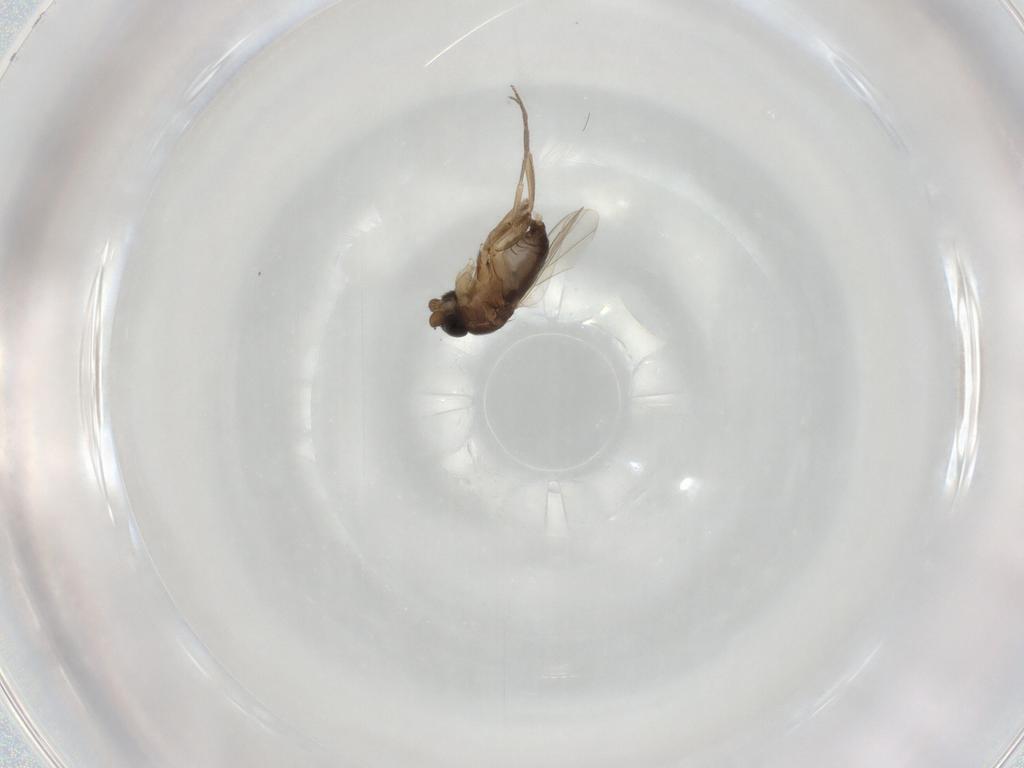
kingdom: Animalia
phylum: Arthropoda
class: Insecta
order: Diptera
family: Phoridae
